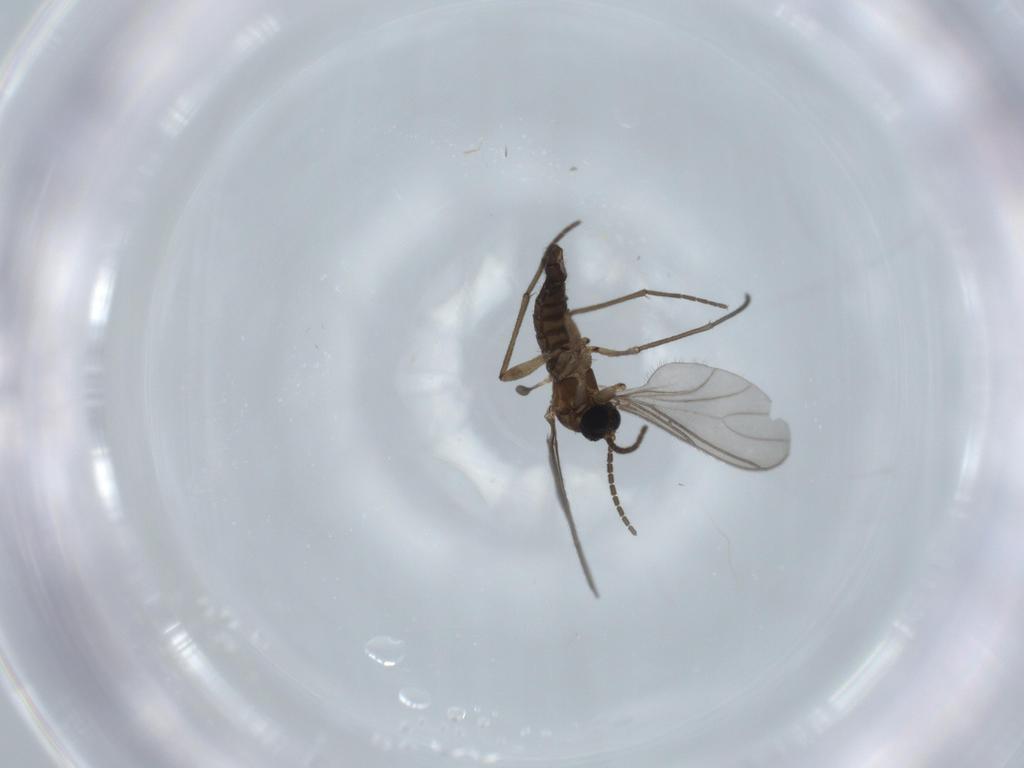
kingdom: Animalia
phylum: Arthropoda
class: Insecta
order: Diptera
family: Sciaridae
